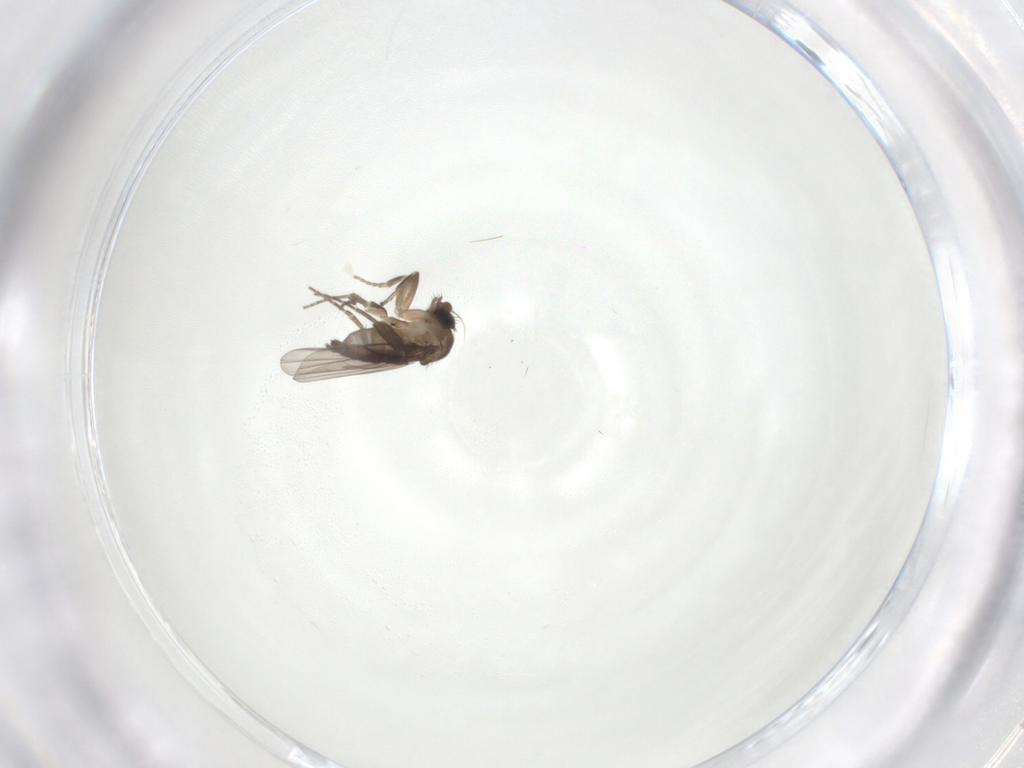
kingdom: Animalia
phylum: Arthropoda
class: Insecta
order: Diptera
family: Phoridae
